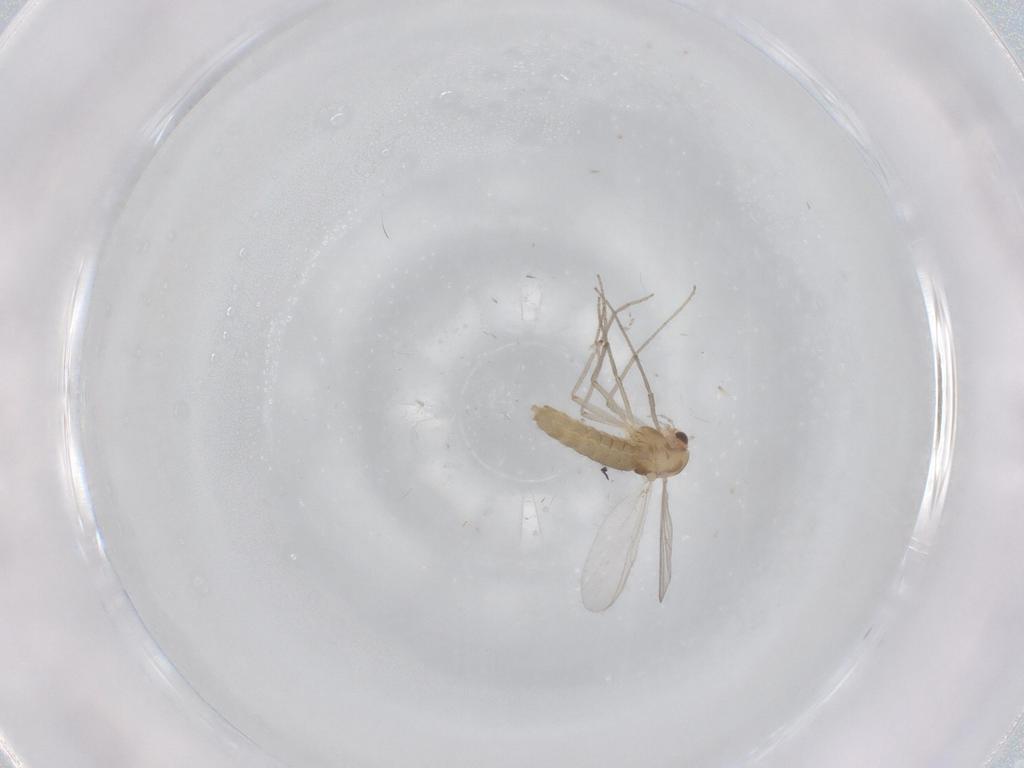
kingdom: Animalia
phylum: Arthropoda
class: Insecta
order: Diptera
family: Chironomidae
